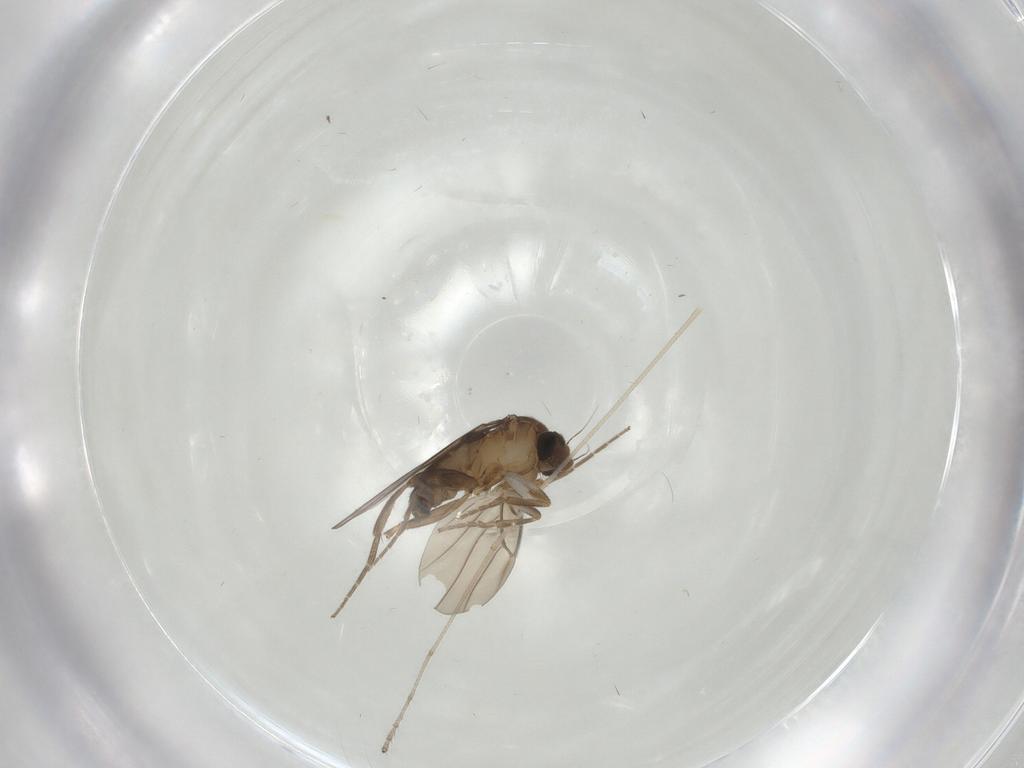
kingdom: Animalia
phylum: Arthropoda
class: Insecta
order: Diptera
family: Limoniidae
